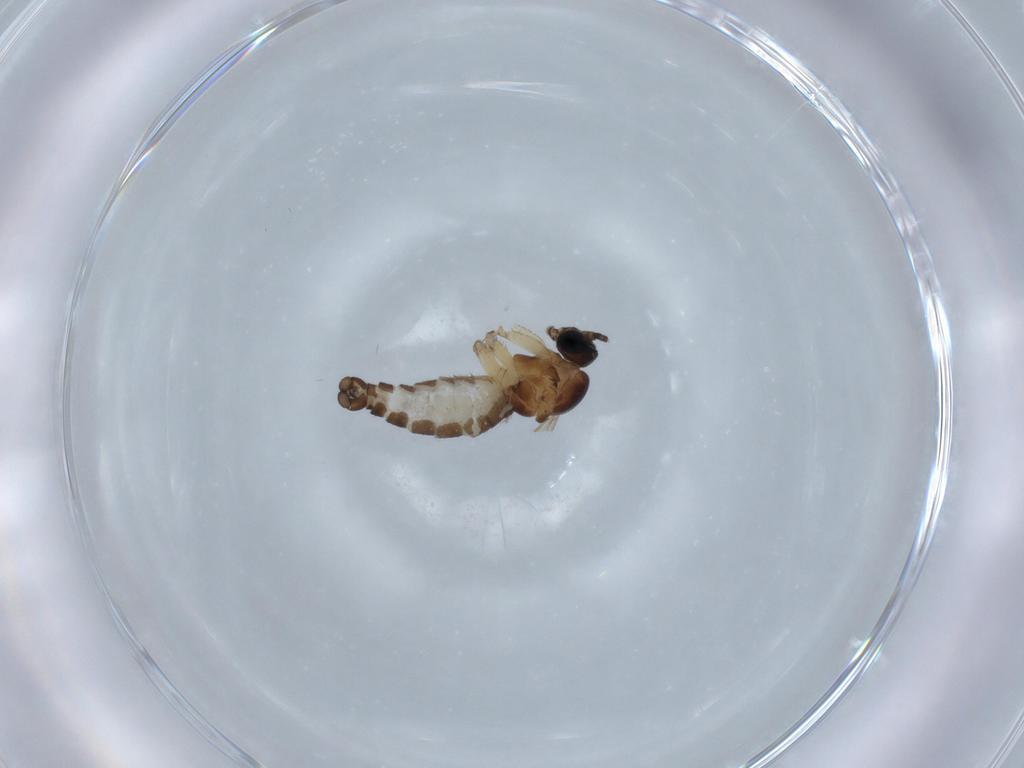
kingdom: Animalia
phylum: Arthropoda
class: Insecta
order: Diptera
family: Sciaridae
